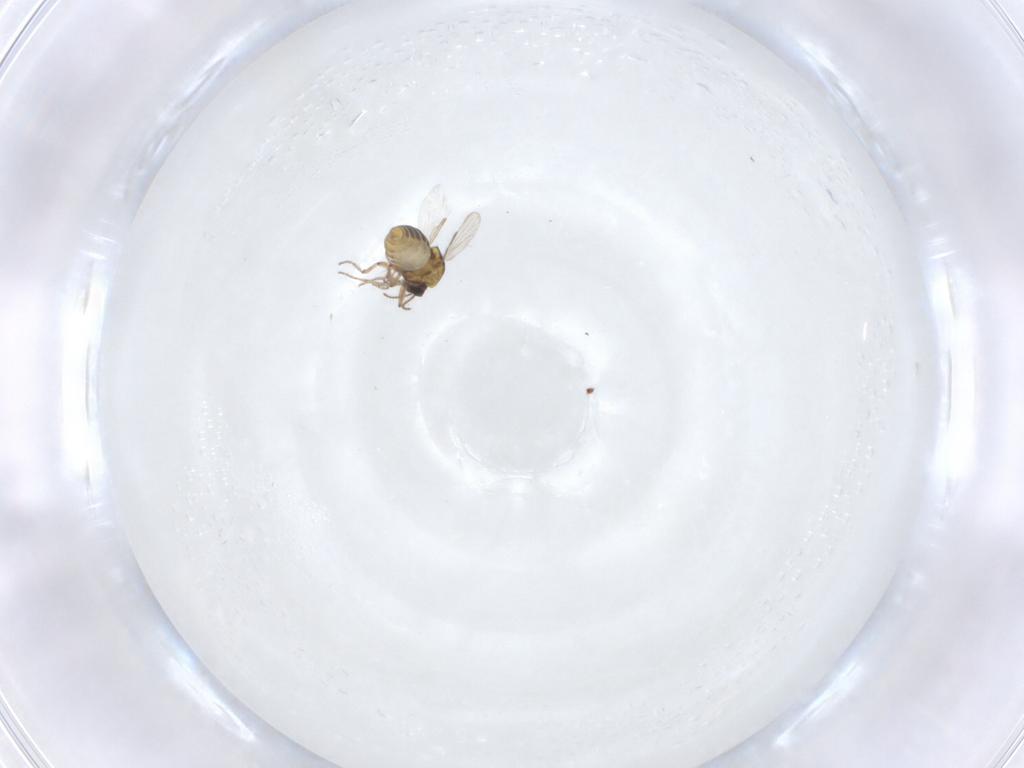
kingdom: Animalia
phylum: Arthropoda
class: Insecta
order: Diptera
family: Ceratopogonidae
